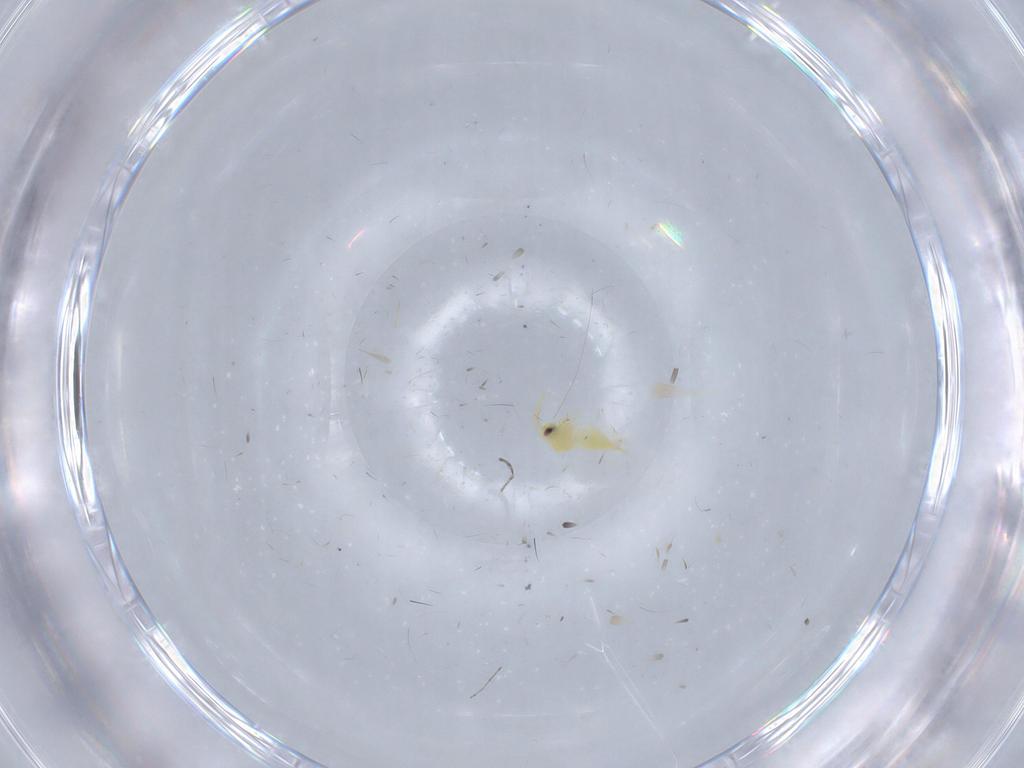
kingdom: Animalia
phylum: Arthropoda
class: Insecta
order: Hemiptera
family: Aleyrodidae
